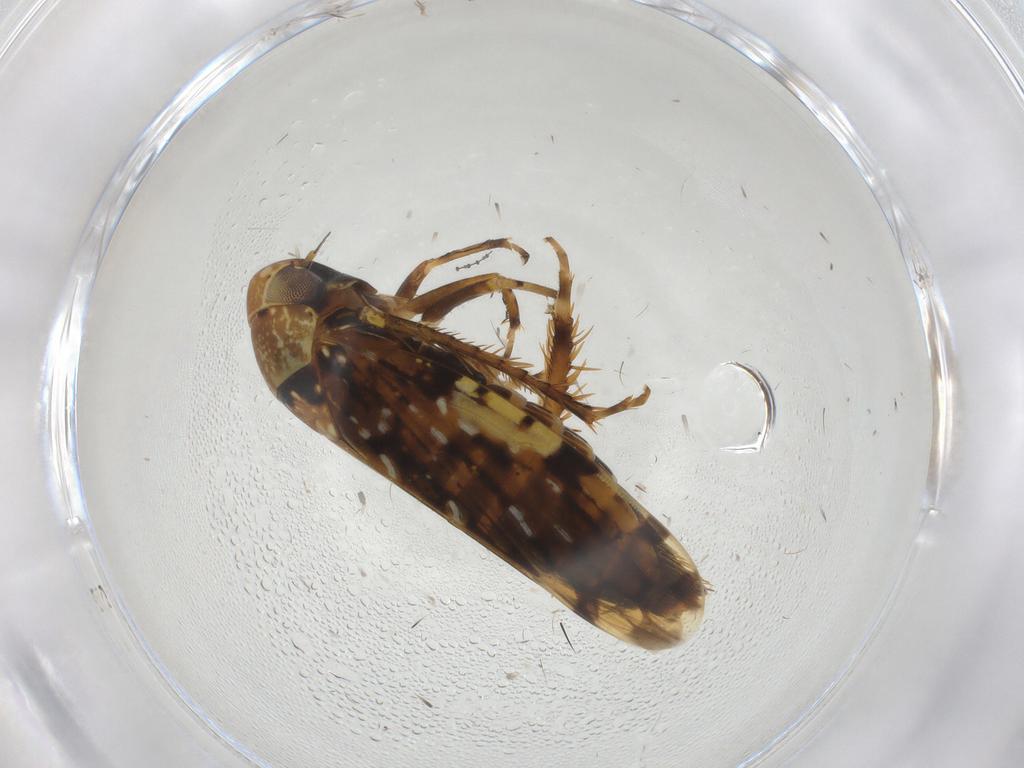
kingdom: Animalia
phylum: Arthropoda
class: Insecta
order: Hemiptera
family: Cicadellidae
